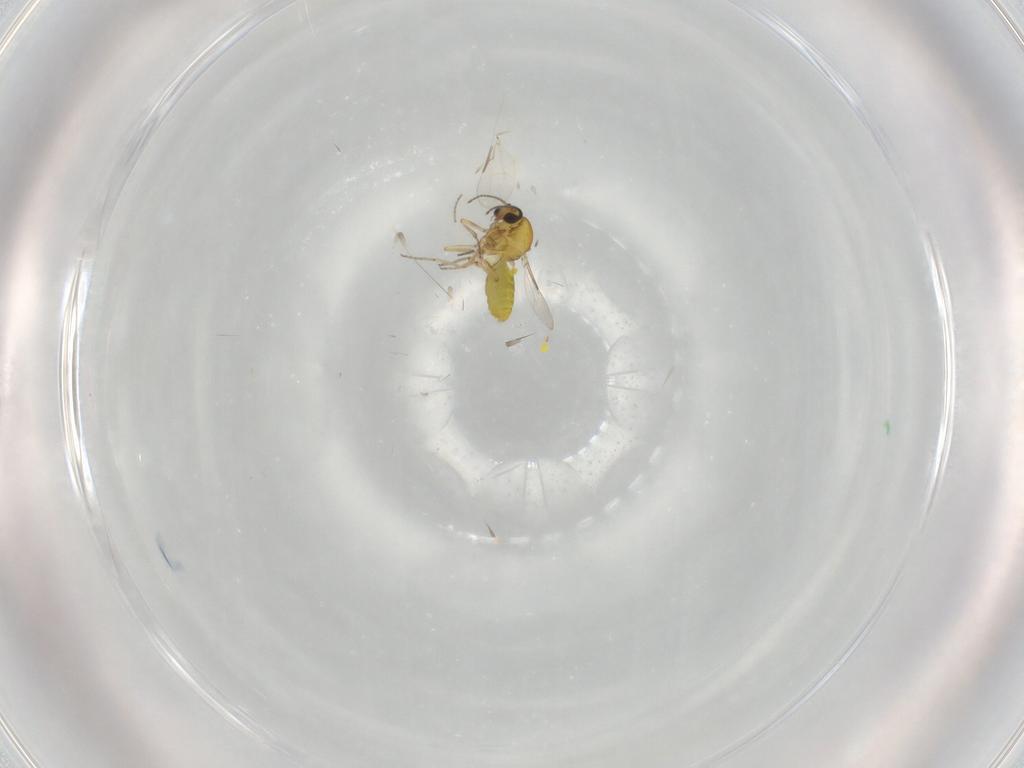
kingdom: Animalia
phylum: Arthropoda
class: Insecta
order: Diptera
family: Ceratopogonidae
